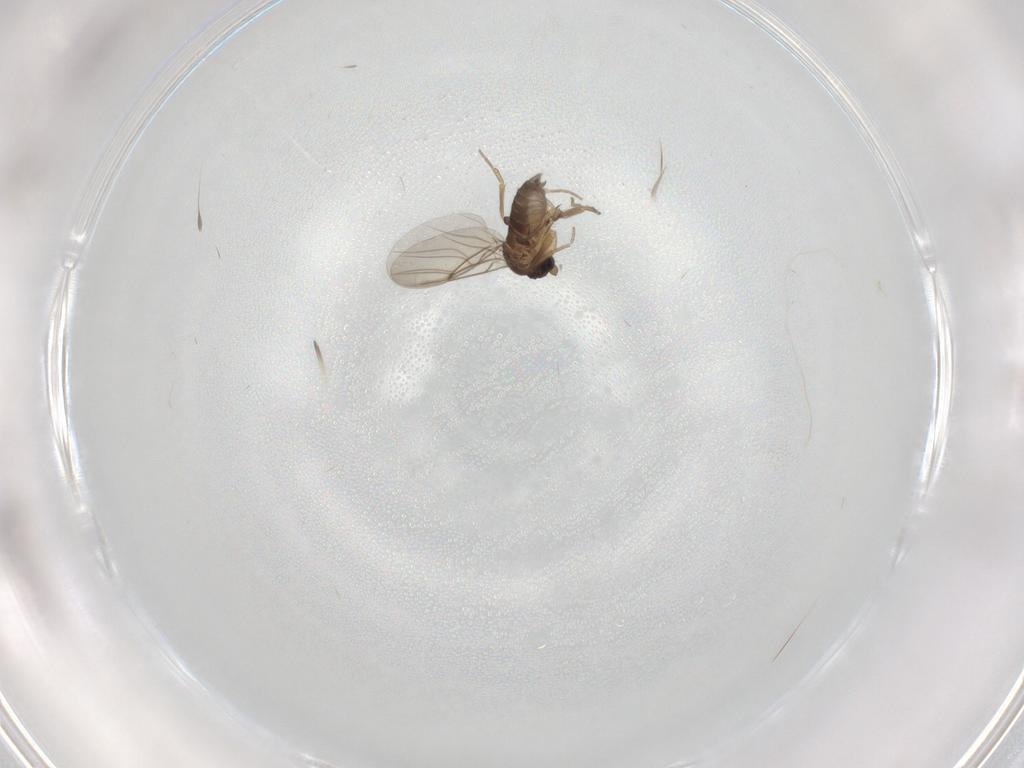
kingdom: Animalia
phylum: Arthropoda
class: Insecta
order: Diptera
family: Phoridae
